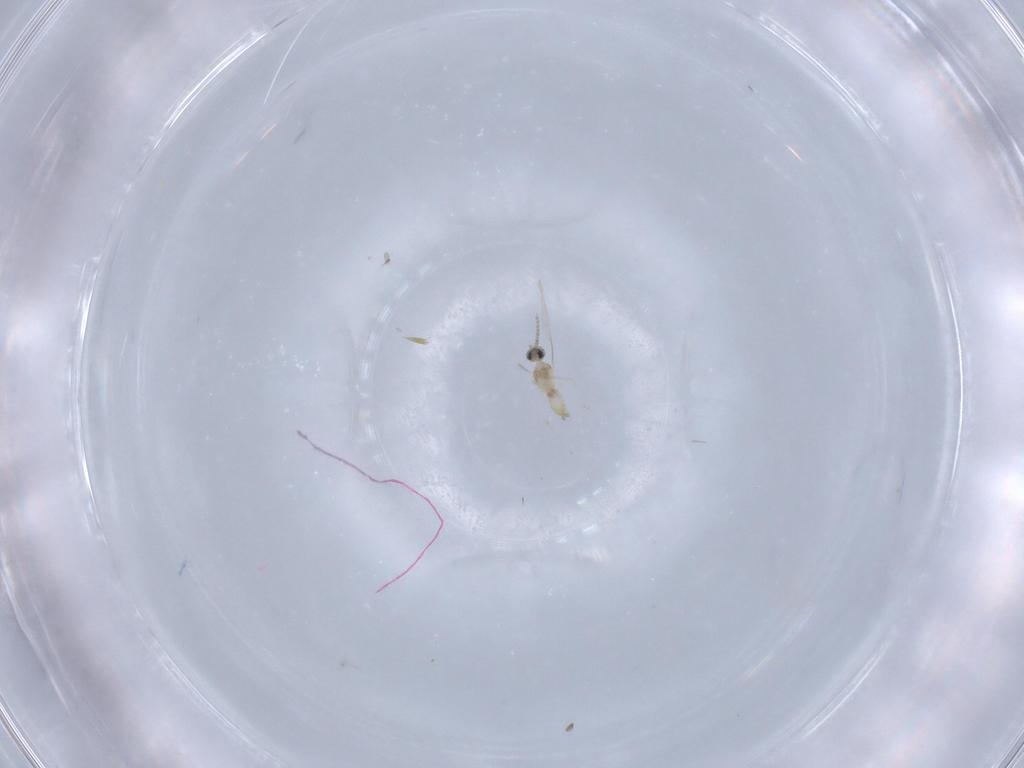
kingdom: Animalia
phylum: Arthropoda
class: Insecta
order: Diptera
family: Cecidomyiidae
